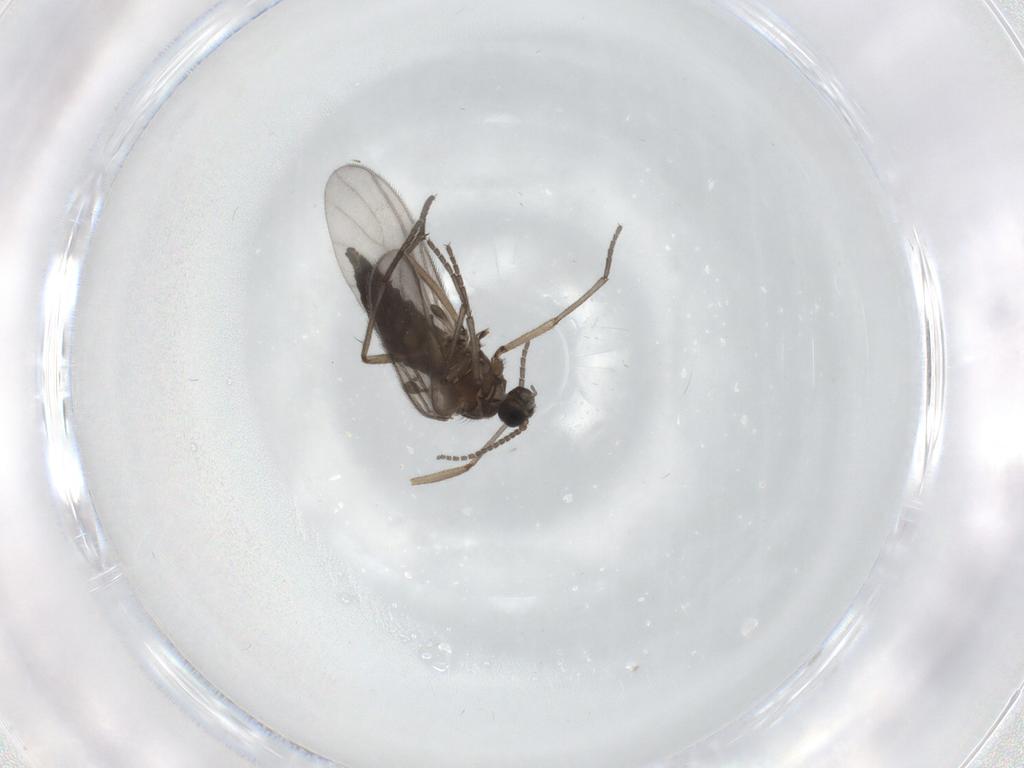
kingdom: Animalia
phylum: Arthropoda
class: Insecta
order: Diptera
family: Sciaridae
